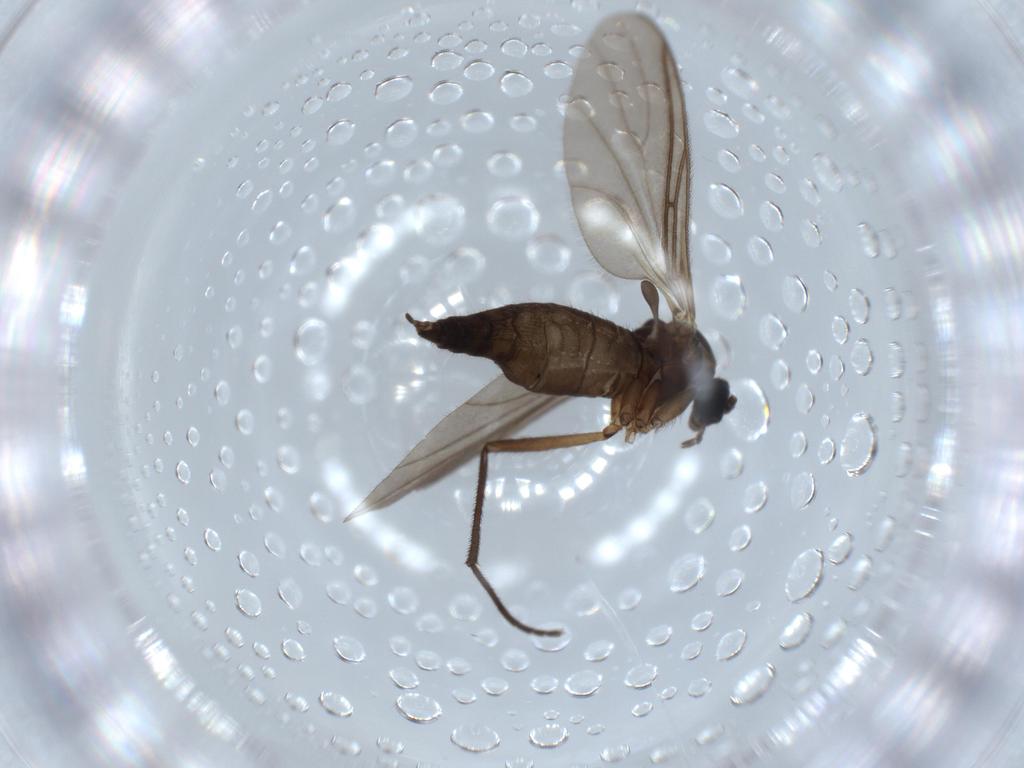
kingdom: Animalia
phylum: Arthropoda
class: Insecta
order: Diptera
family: Sciaridae
